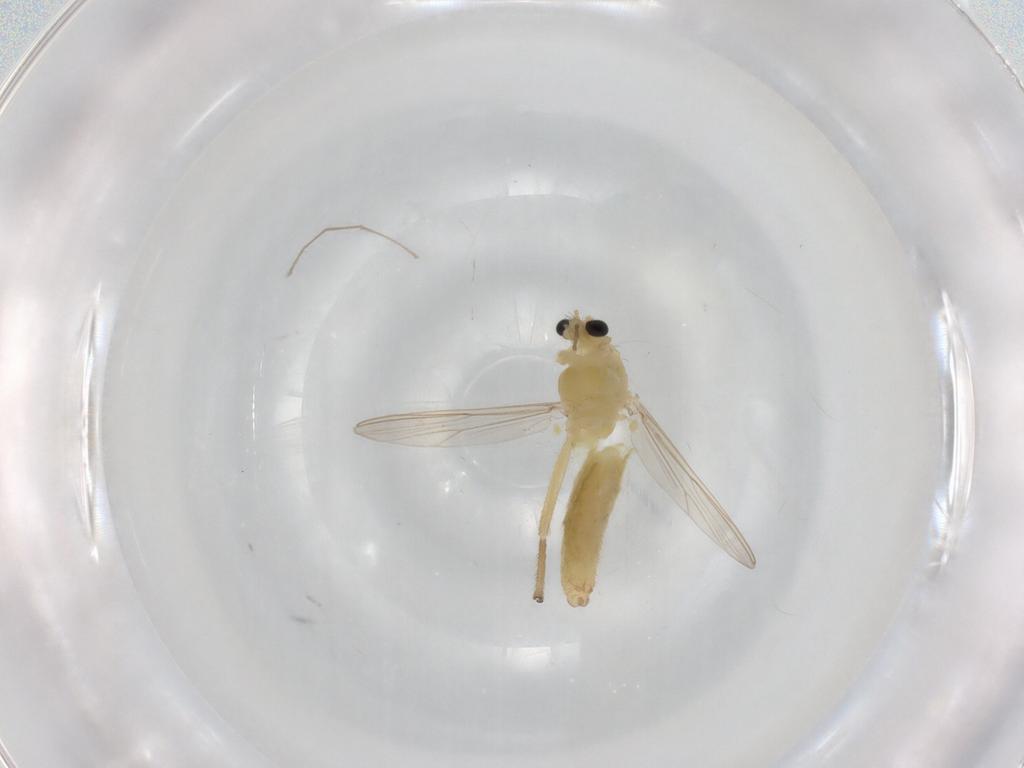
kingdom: Animalia
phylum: Arthropoda
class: Insecta
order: Diptera
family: Chironomidae
